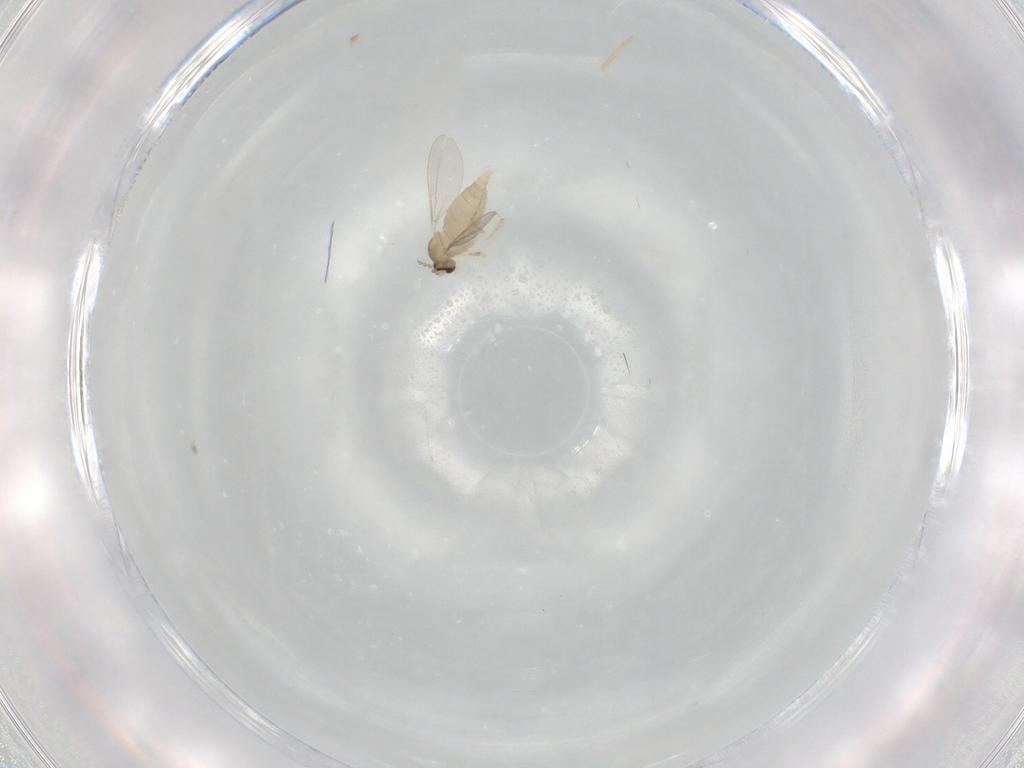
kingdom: Animalia
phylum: Arthropoda
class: Insecta
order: Diptera
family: Cecidomyiidae
